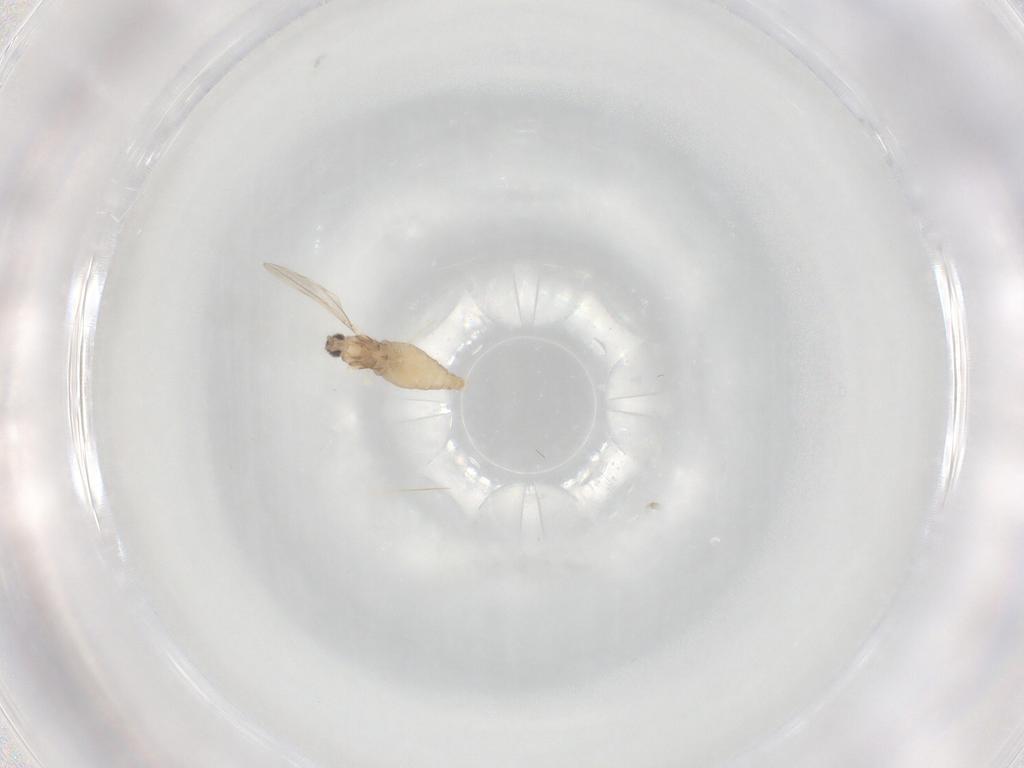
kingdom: Animalia
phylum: Arthropoda
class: Insecta
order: Diptera
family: Cecidomyiidae
